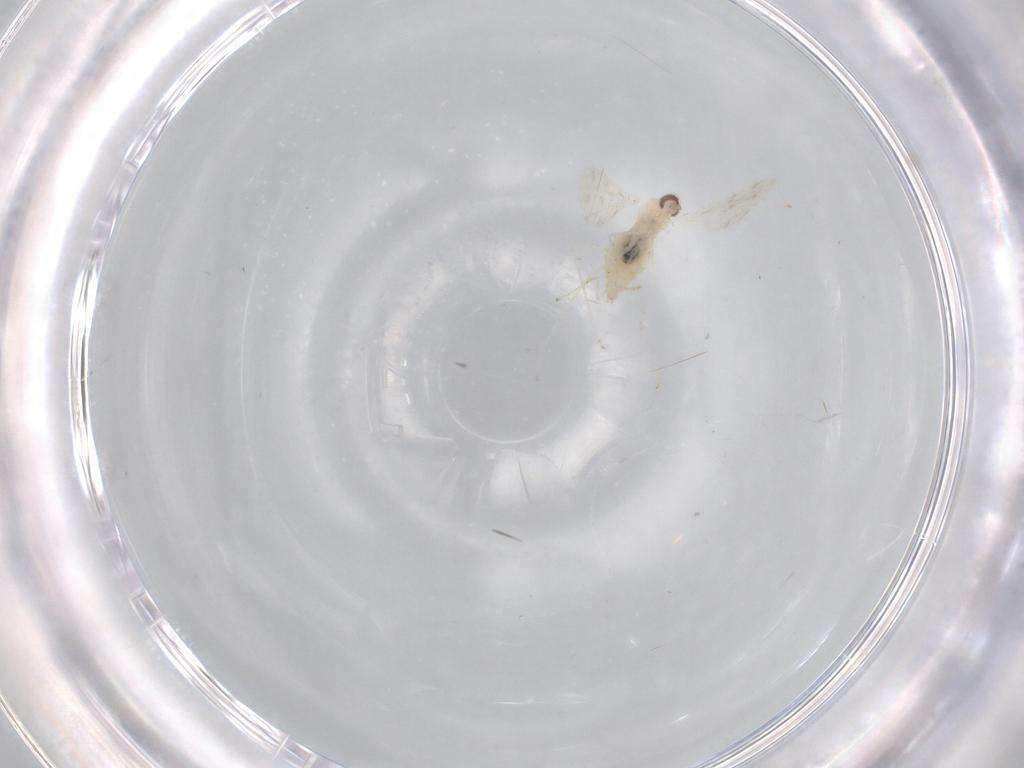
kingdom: Animalia
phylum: Arthropoda
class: Insecta
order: Diptera
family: Cecidomyiidae
